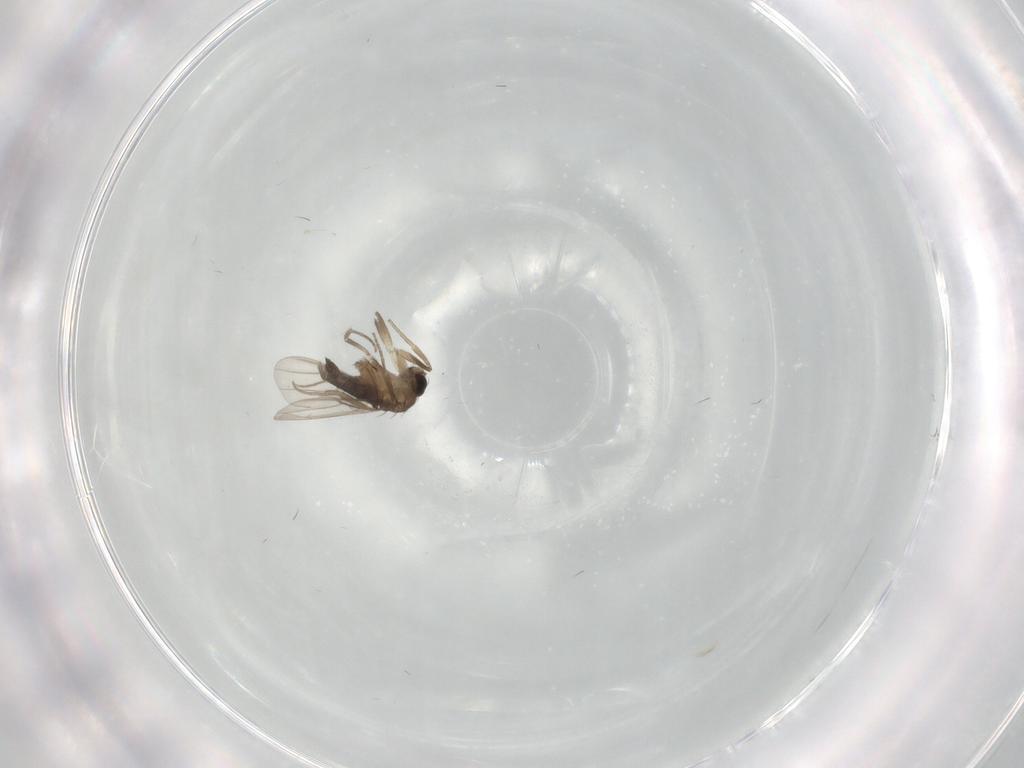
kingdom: Animalia
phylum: Arthropoda
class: Insecta
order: Diptera
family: Phoridae
